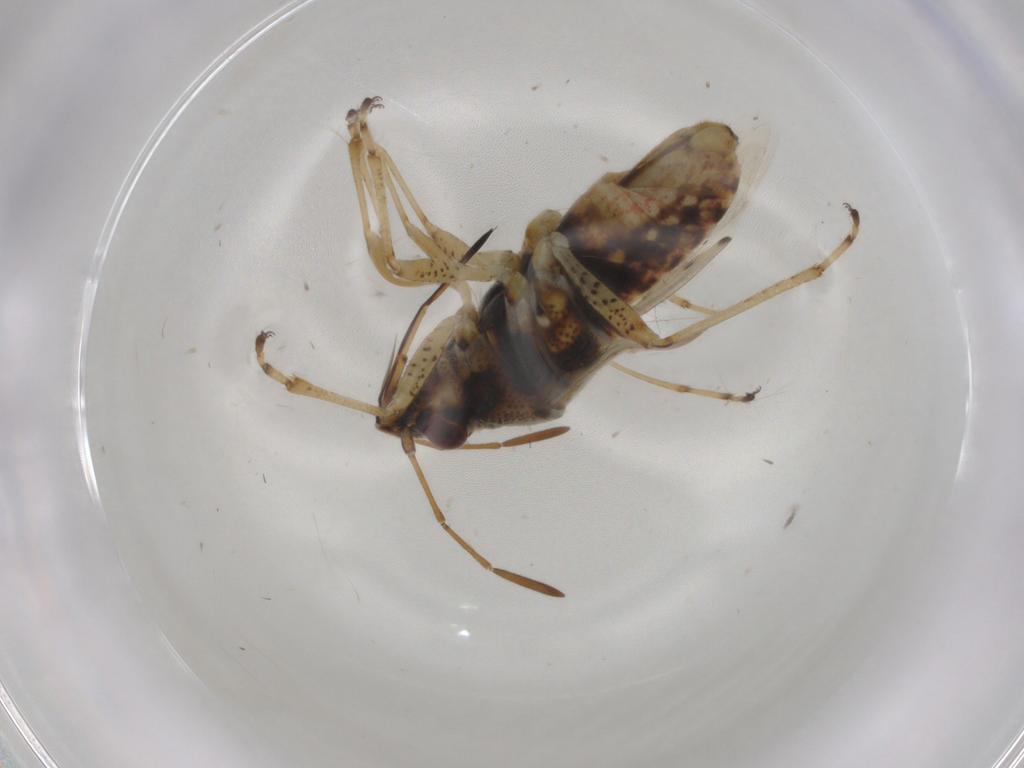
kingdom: Animalia
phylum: Arthropoda
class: Insecta
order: Hemiptera
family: Lygaeidae
